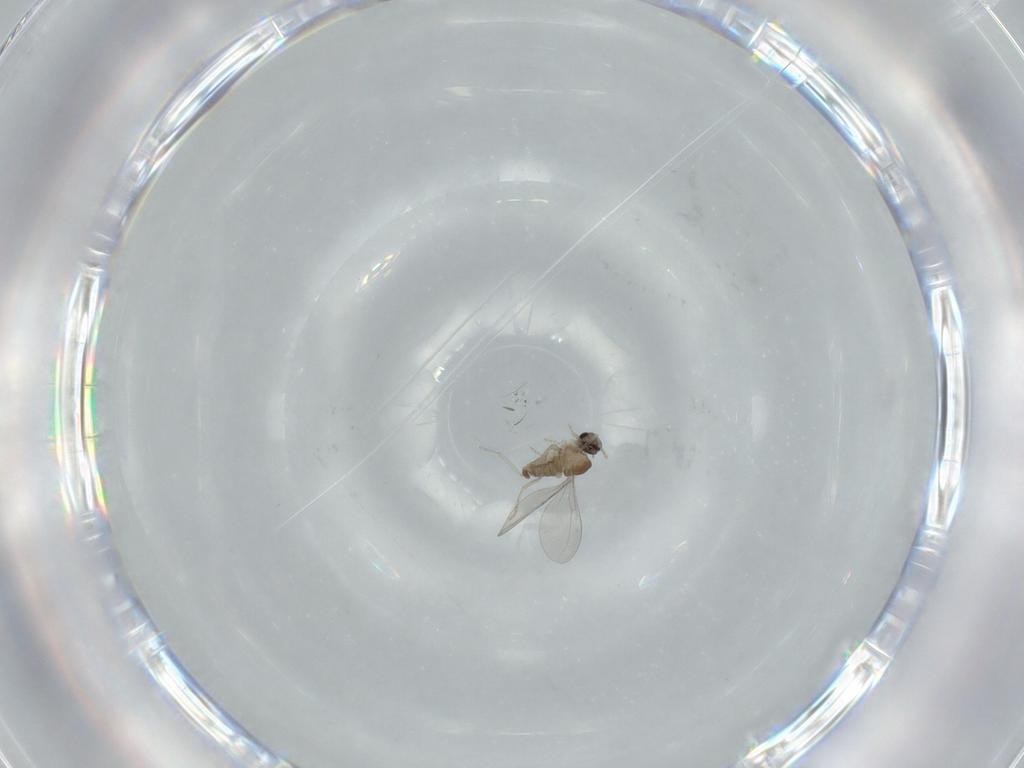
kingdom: Animalia
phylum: Arthropoda
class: Insecta
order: Diptera
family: Cecidomyiidae
